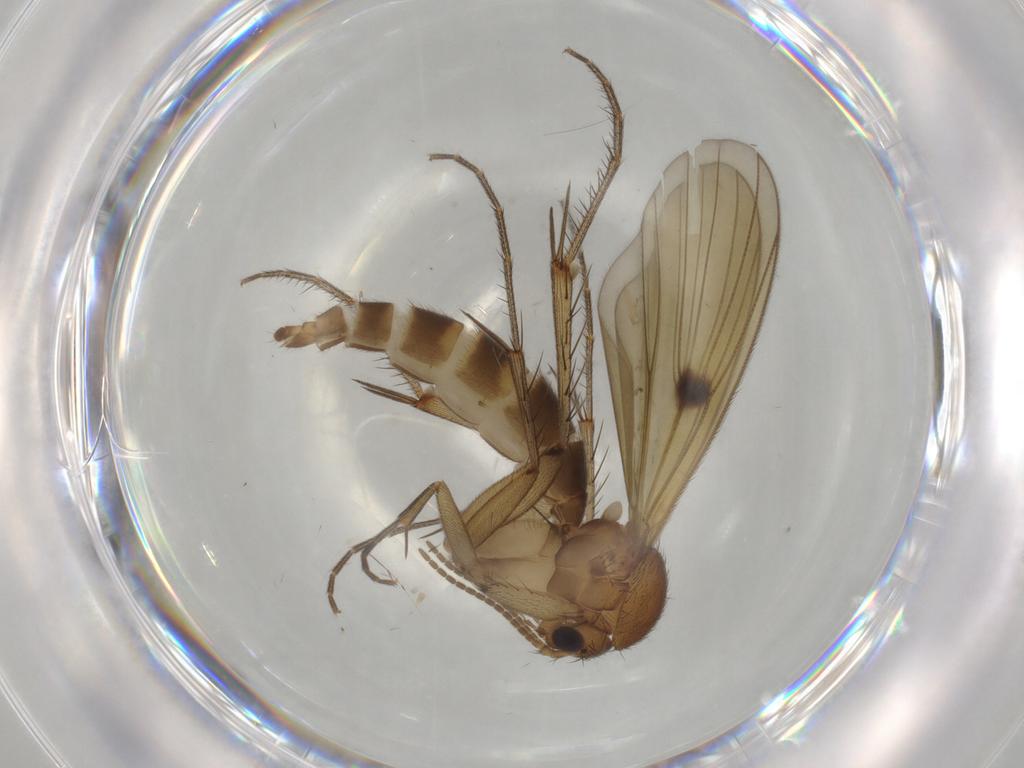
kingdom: Animalia
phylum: Arthropoda
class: Insecta
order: Diptera
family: Mycetophilidae
